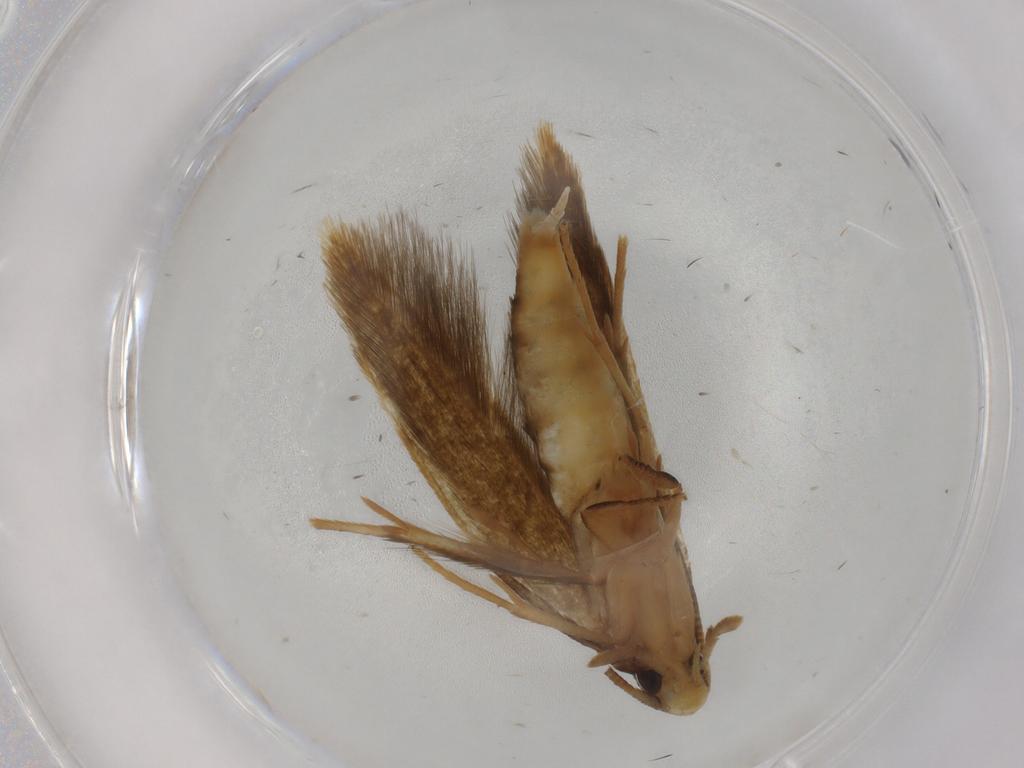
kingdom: Animalia
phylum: Arthropoda
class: Insecta
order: Lepidoptera
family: Tineidae
